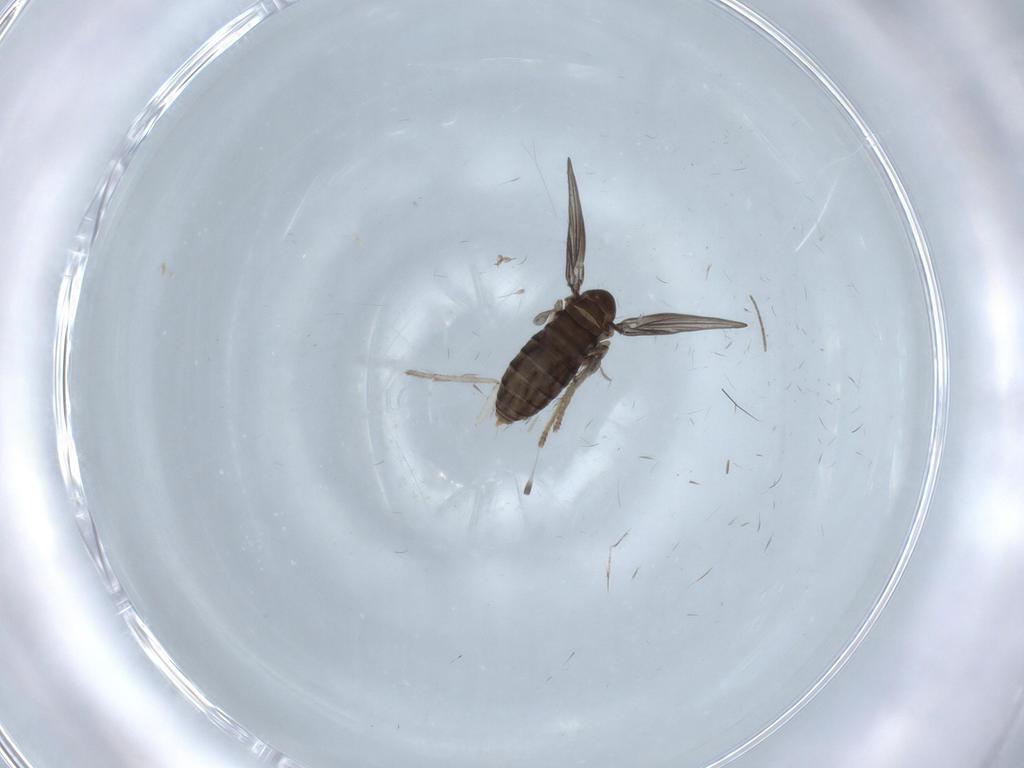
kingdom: Animalia
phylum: Arthropoda
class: Insecta
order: Diptera
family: Psychodidae
